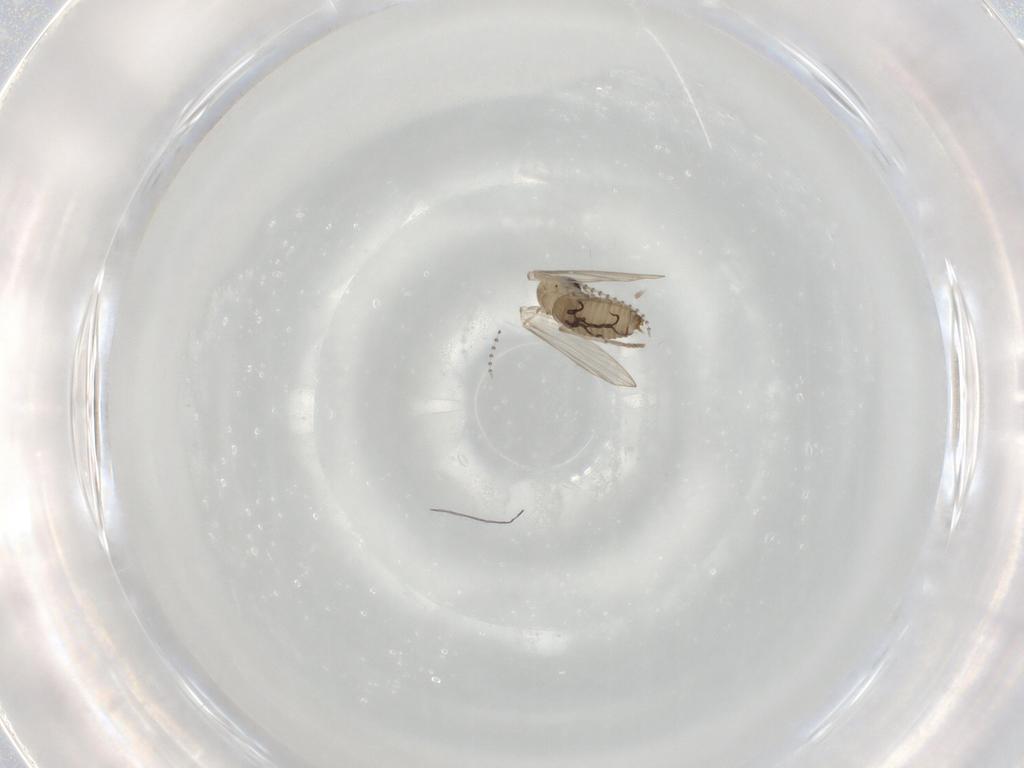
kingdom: Animalia
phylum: Arthropoda
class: Insecta
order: Diptera
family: Psychodidae
